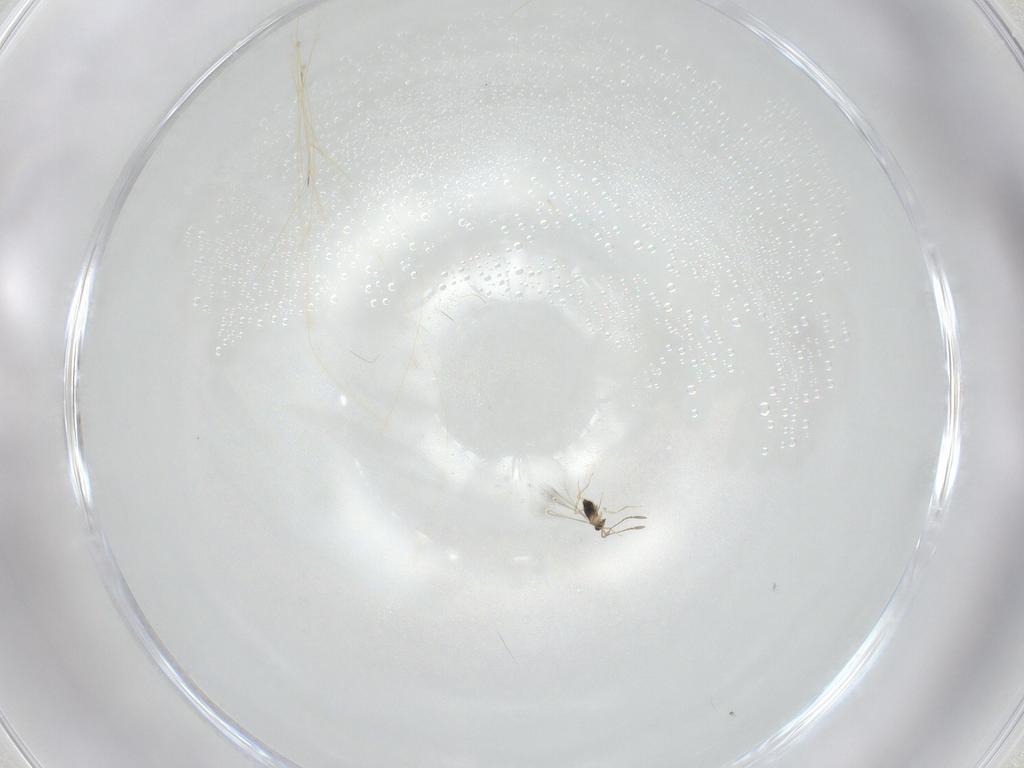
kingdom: Animalia
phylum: Arthropoda
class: Insecta
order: Hymenoptera
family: Mymaridae
